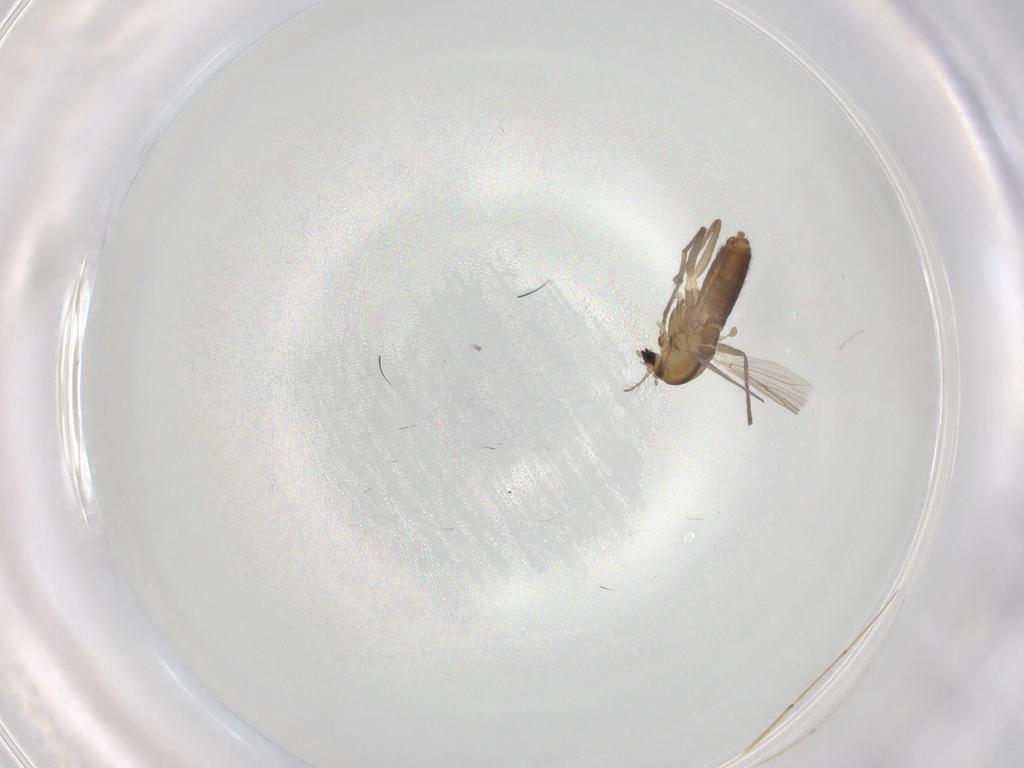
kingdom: Animalia
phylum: Arthropoda
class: Insecta
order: Diptera
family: Chironomidae
